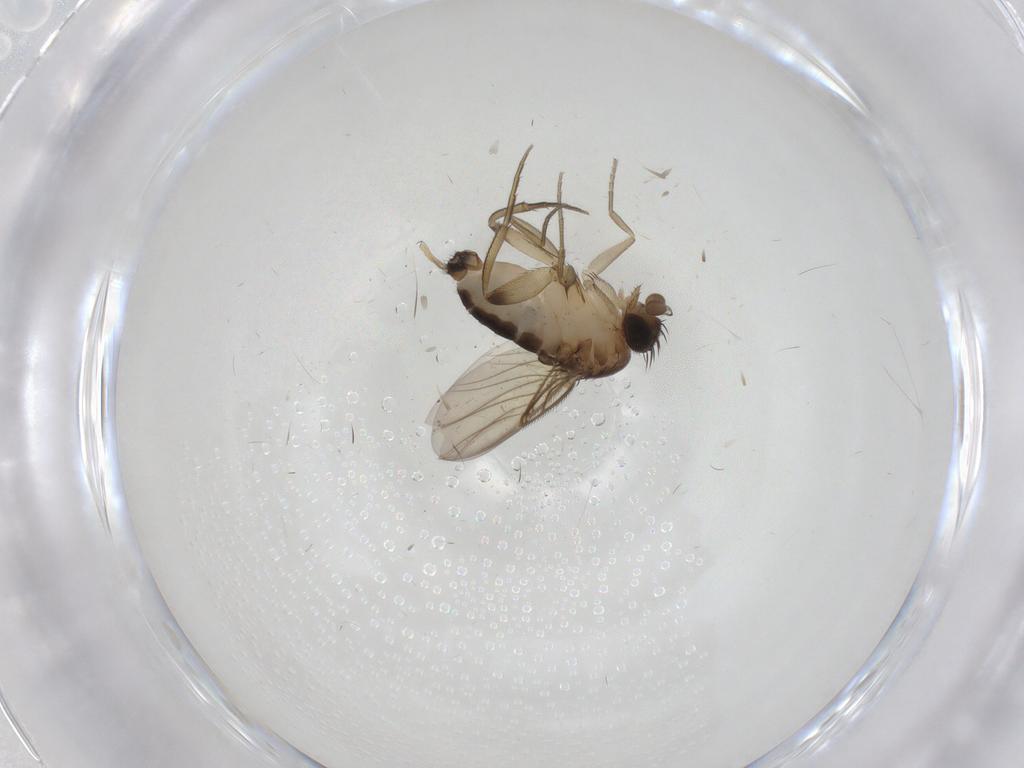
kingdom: Animalia
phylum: Arthropoda
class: Insecta
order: Diptera
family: Phoridae
